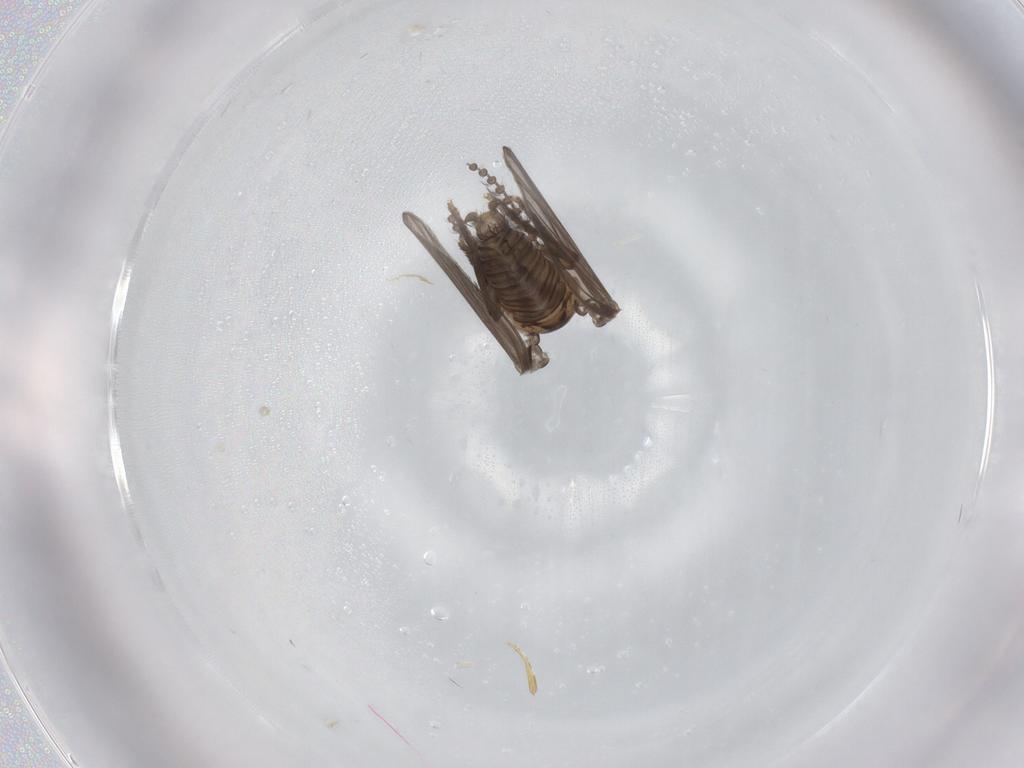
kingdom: Animalia
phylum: Arthropoda
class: Insecta
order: Diptera
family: Psychodidae
